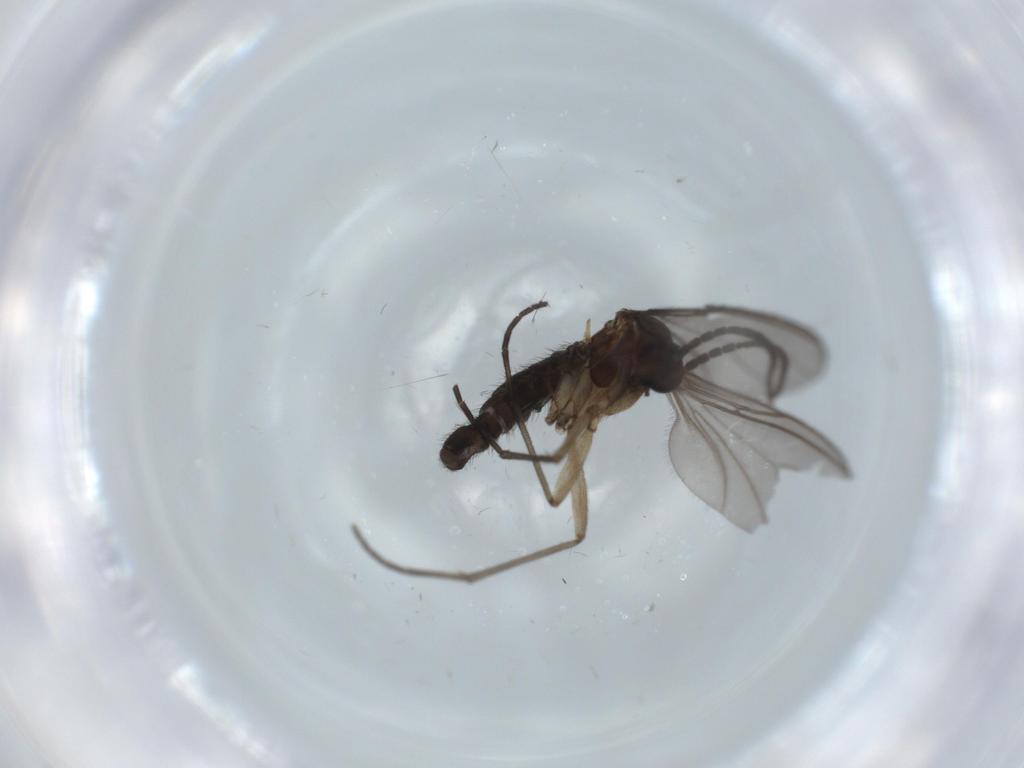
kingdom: Animalia
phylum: Arthropoda
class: Insecta
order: Diptera
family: Sciaridae
